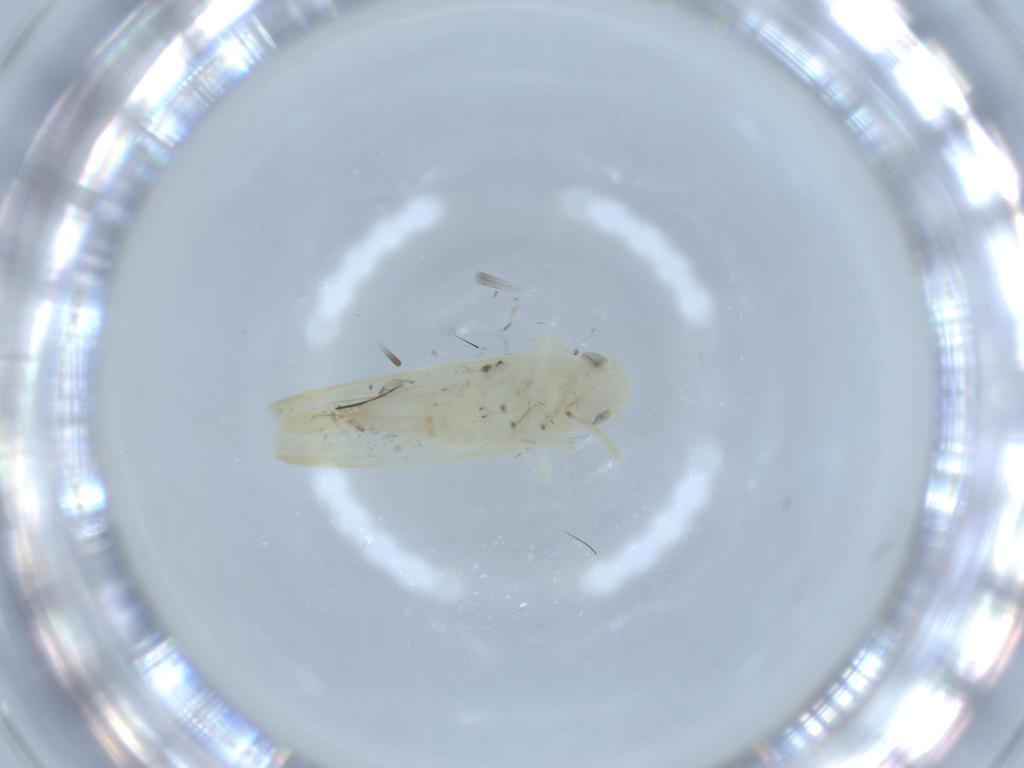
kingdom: Animalia
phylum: Arthropoda
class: Insecta
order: Hemiptera
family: Cicadellidae
